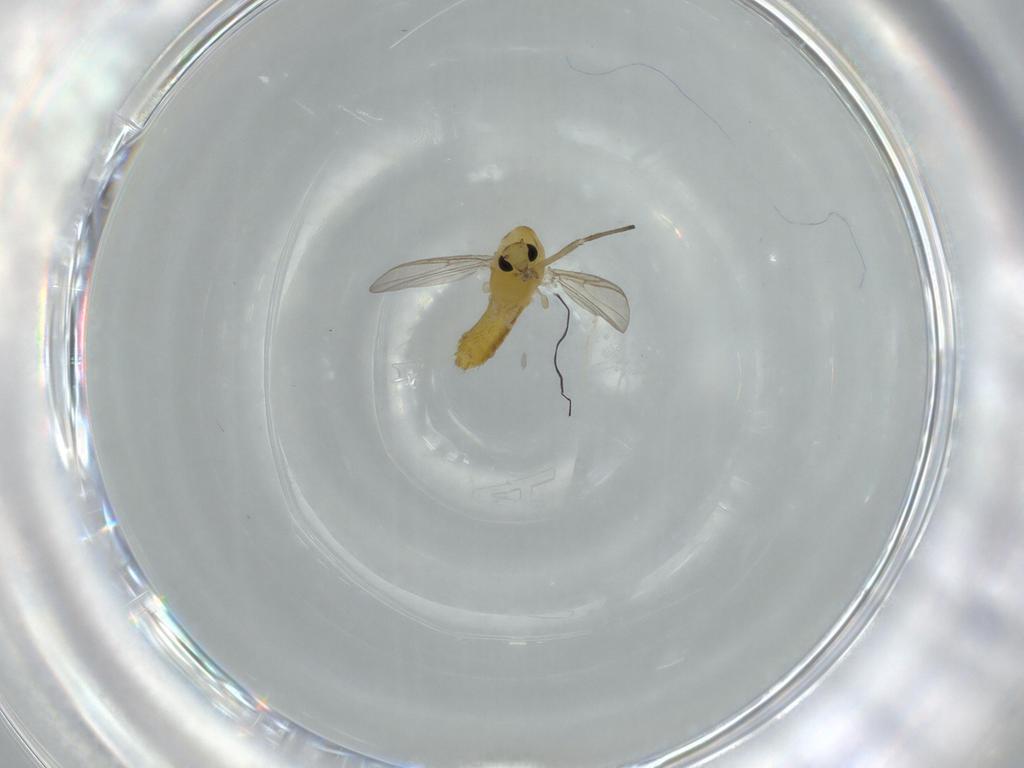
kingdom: Animalia
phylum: Arthropoda
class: Insecta
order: Diptera
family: Chironomidae
